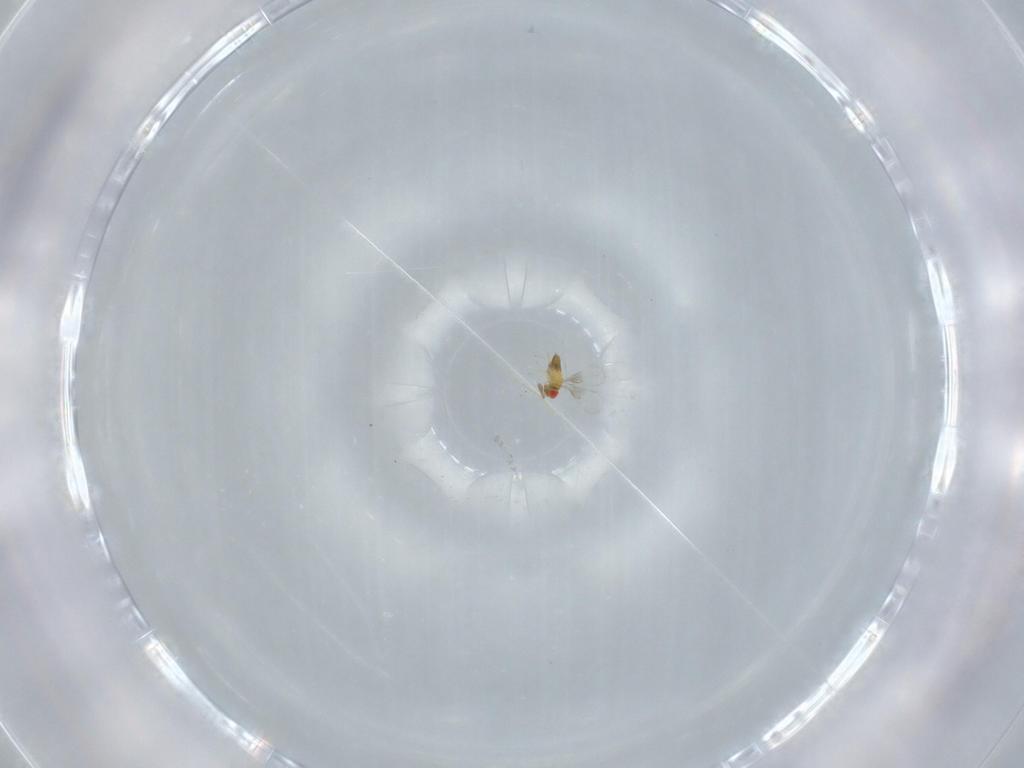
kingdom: Animalia
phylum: Arthropoda
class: Insecta
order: Hymenoptera
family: Trichogrammatidae
